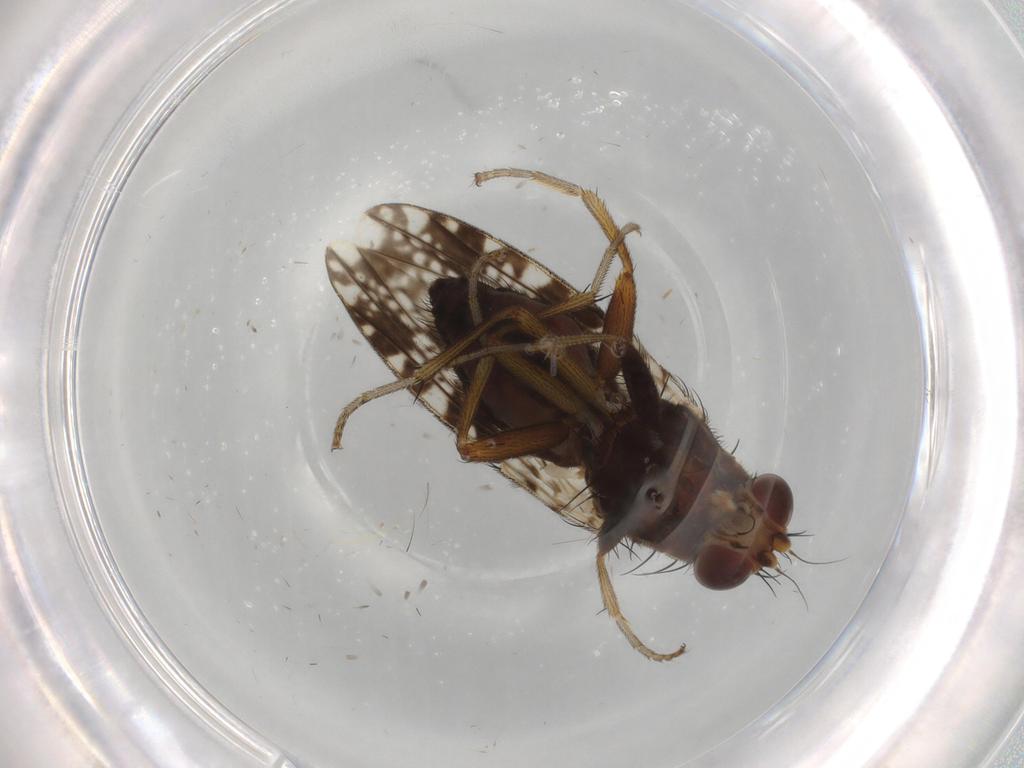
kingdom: Animalia
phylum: Arthropoda
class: Insecta
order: Diptera
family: Tephritidae
